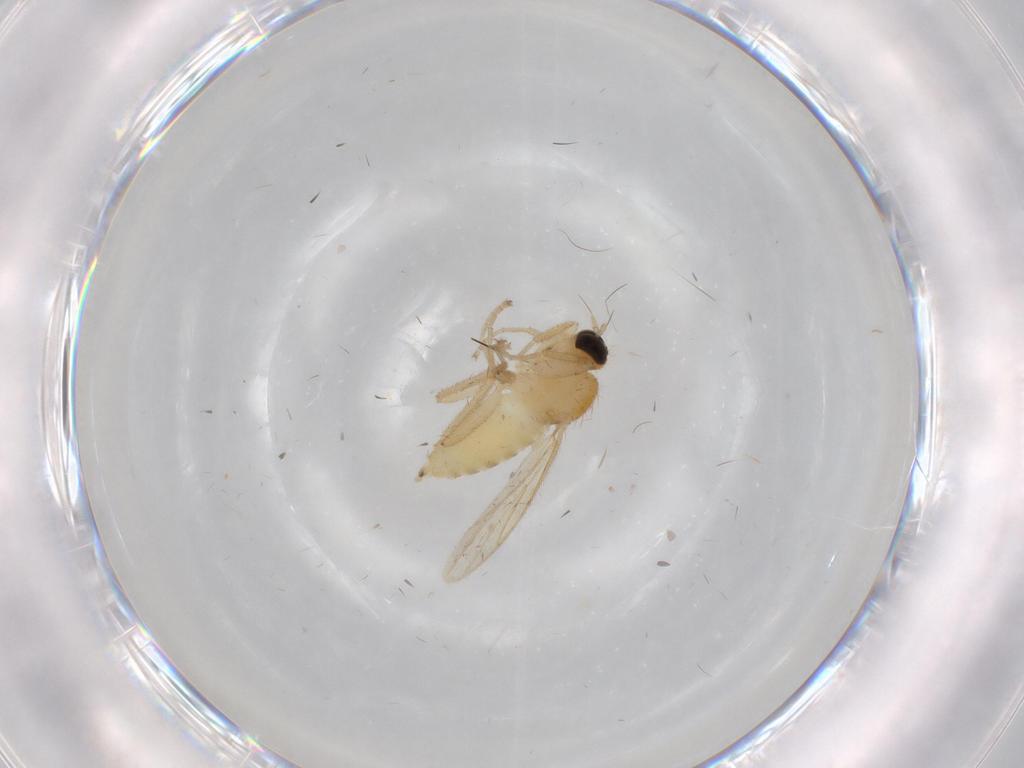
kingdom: Animalia
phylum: Arthropoda
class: Insecta
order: Diptera
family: Hybotidae
